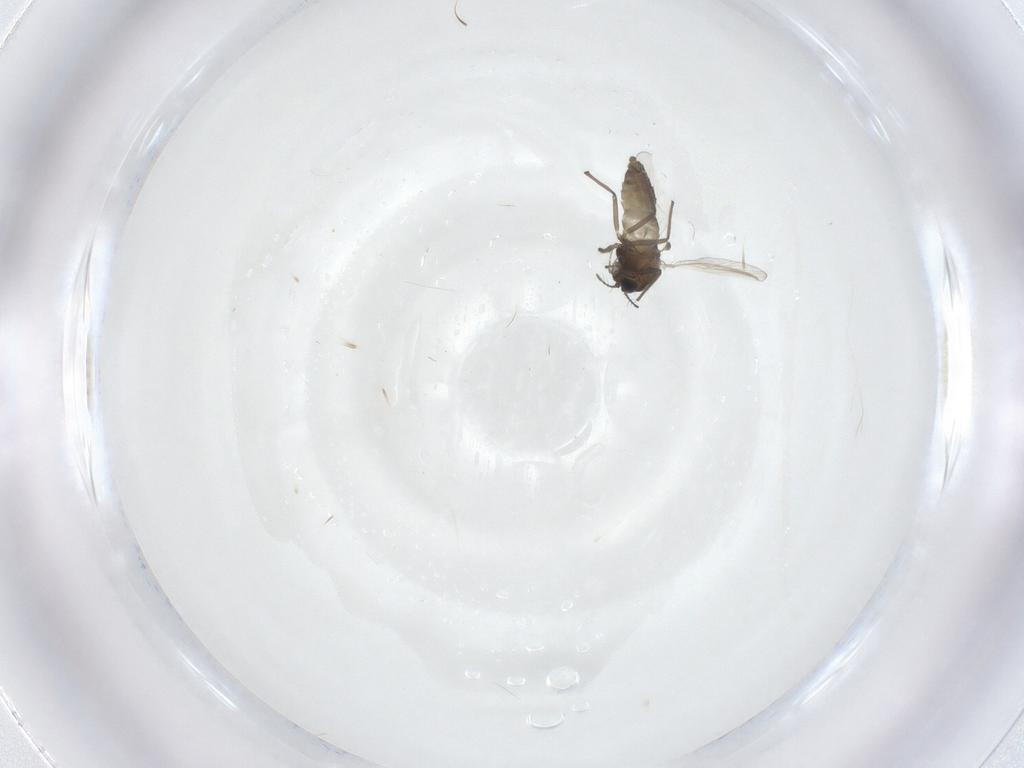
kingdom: Animalia
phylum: Arthropoda
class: Insecta
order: Diptera
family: Chironomidae
